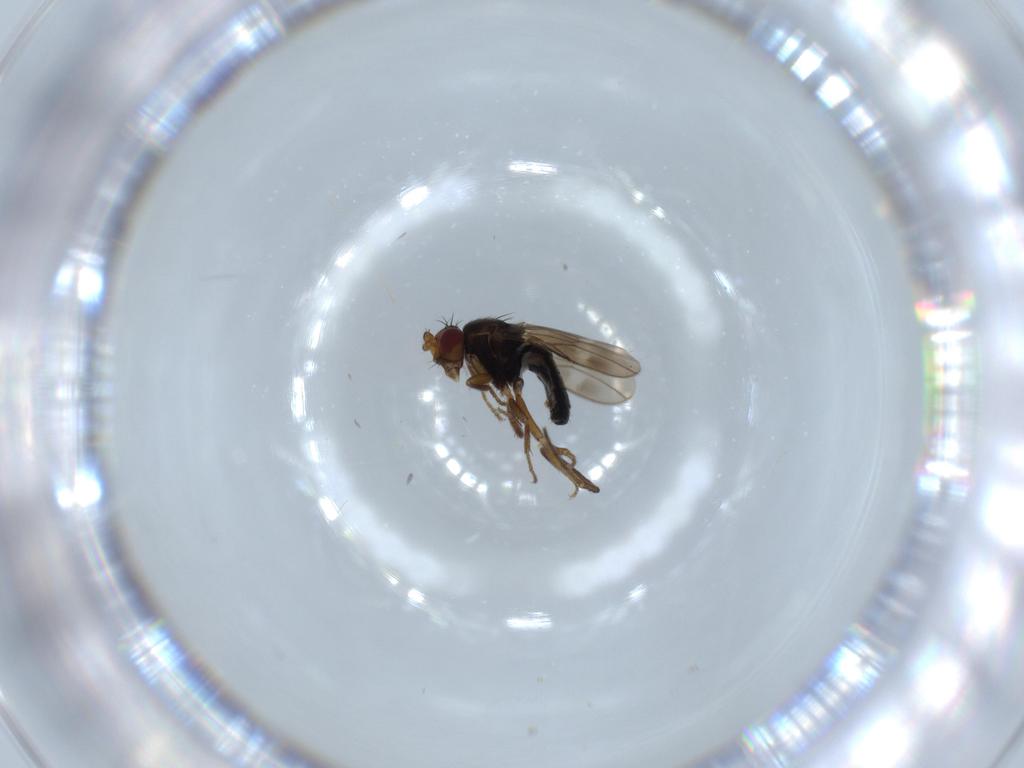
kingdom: Animalia
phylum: Arthropoda
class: Insecta
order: Diptera
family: Sphaeroceridae
